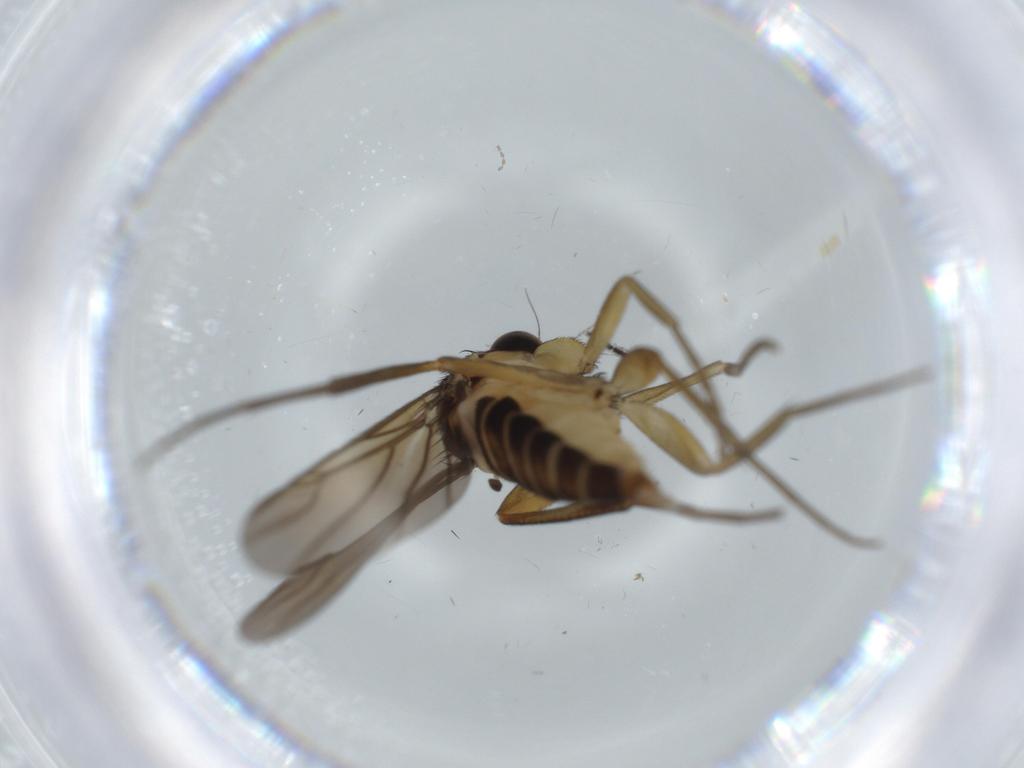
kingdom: Animalia
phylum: Arthropoda
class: Insecta
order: Diptera
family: Phoridae
